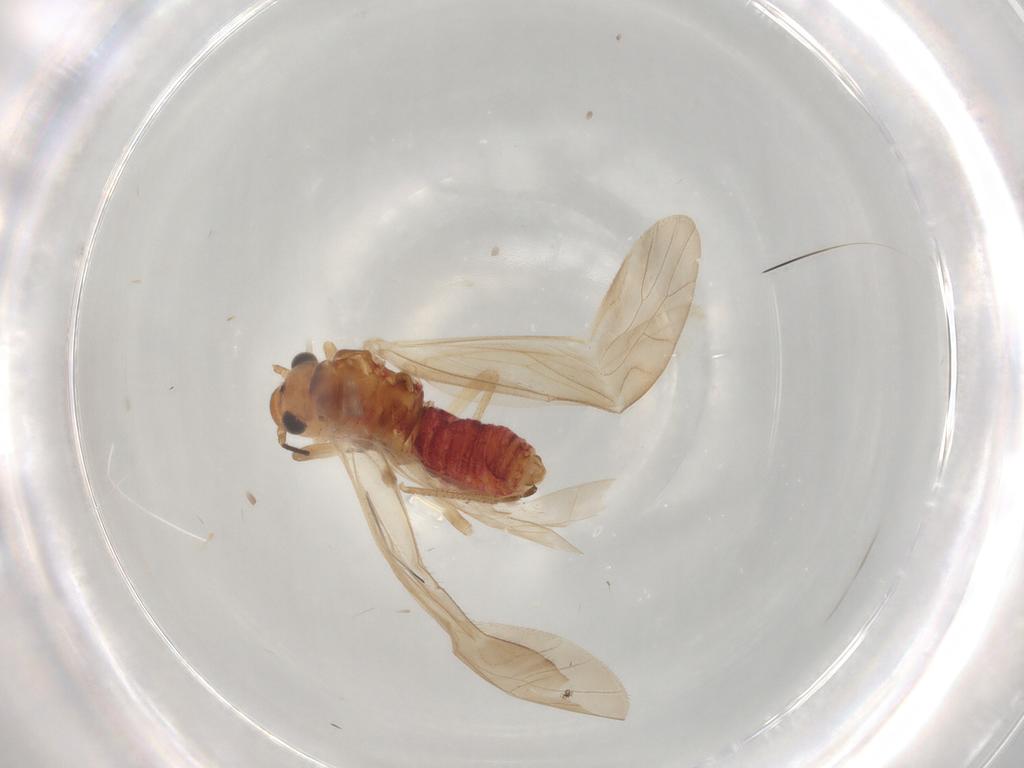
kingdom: Animalia
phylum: Arthropoda
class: Insecta
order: Psocodea
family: Caeciliusidae
